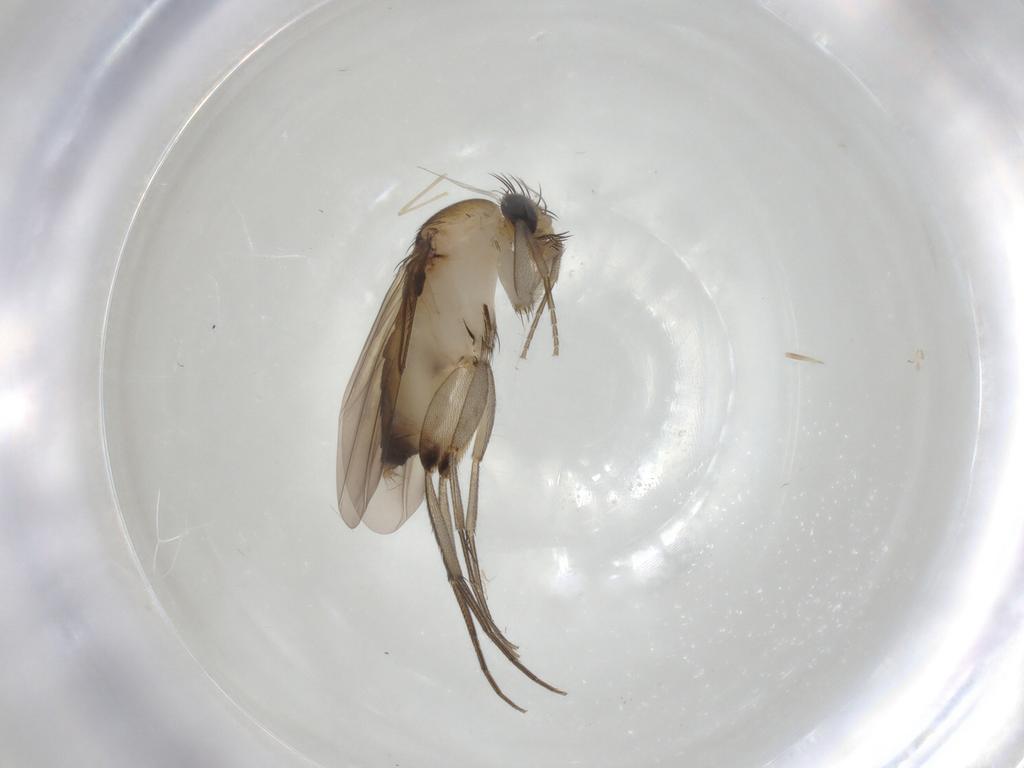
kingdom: Animalia
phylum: Arthropoda
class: Insecta
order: Diptera
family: Phoridae
